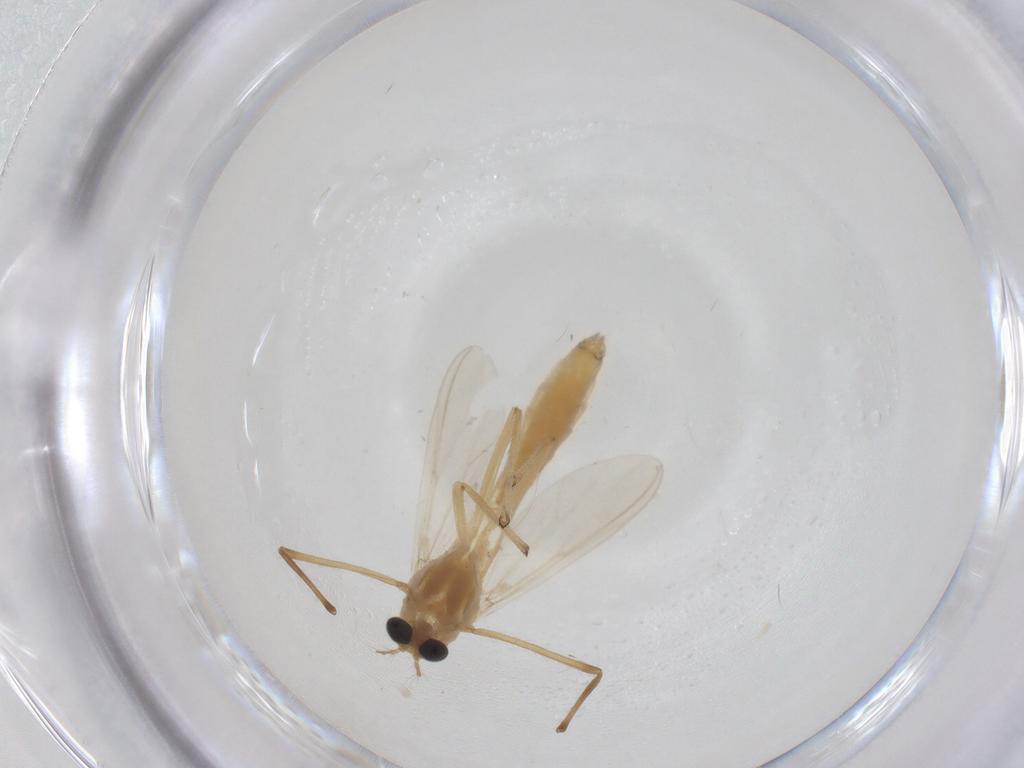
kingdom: Animalia
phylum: Arthropoda
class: Insecta
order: Diptera
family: Chironomidae
